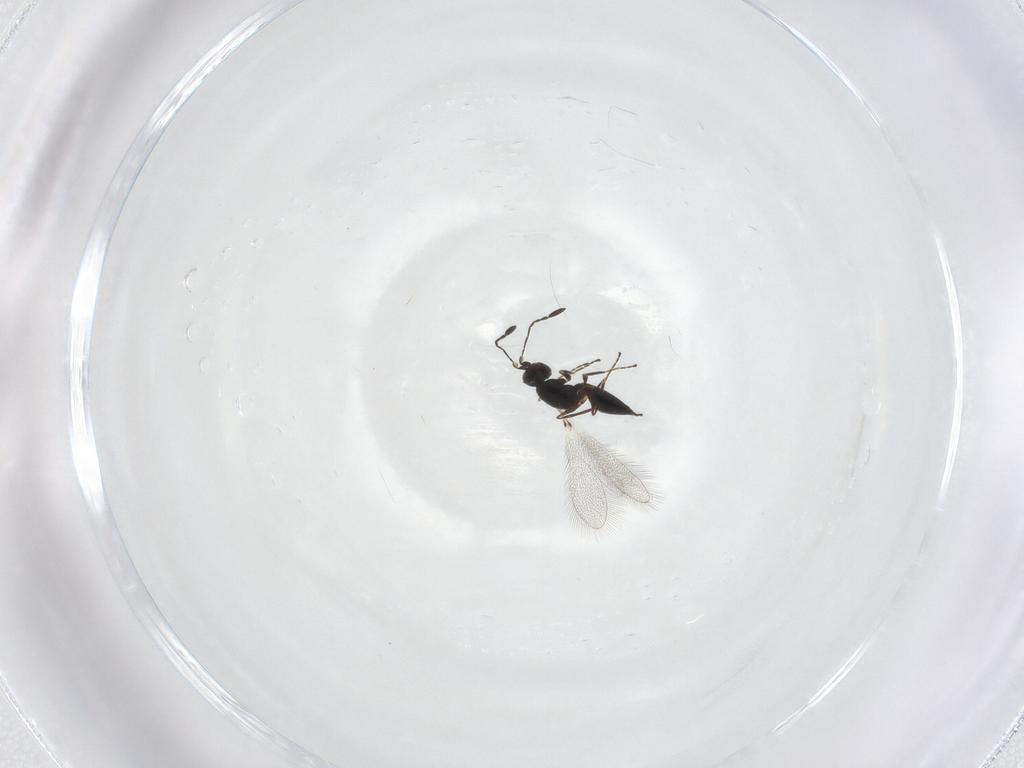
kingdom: Animalia
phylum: Arthropoda
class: Insecta
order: Hymenoptera
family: Mymaridae
